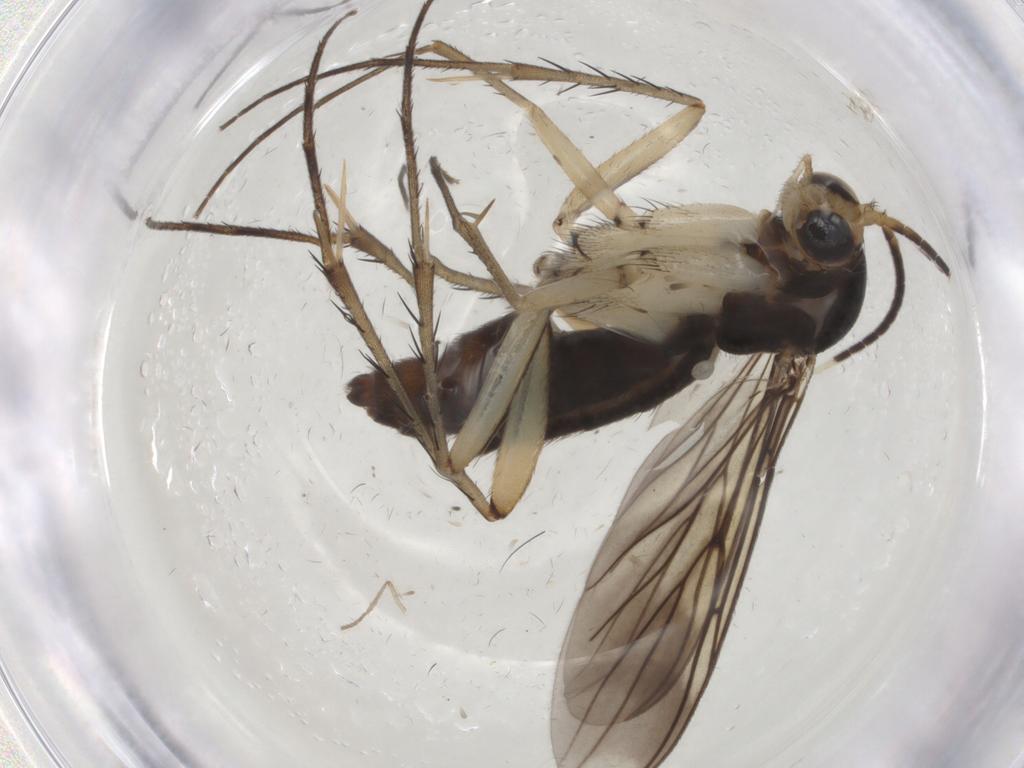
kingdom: Animalia
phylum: Arthropoda
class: Insecta
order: Diptera
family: Mycetophilidae
